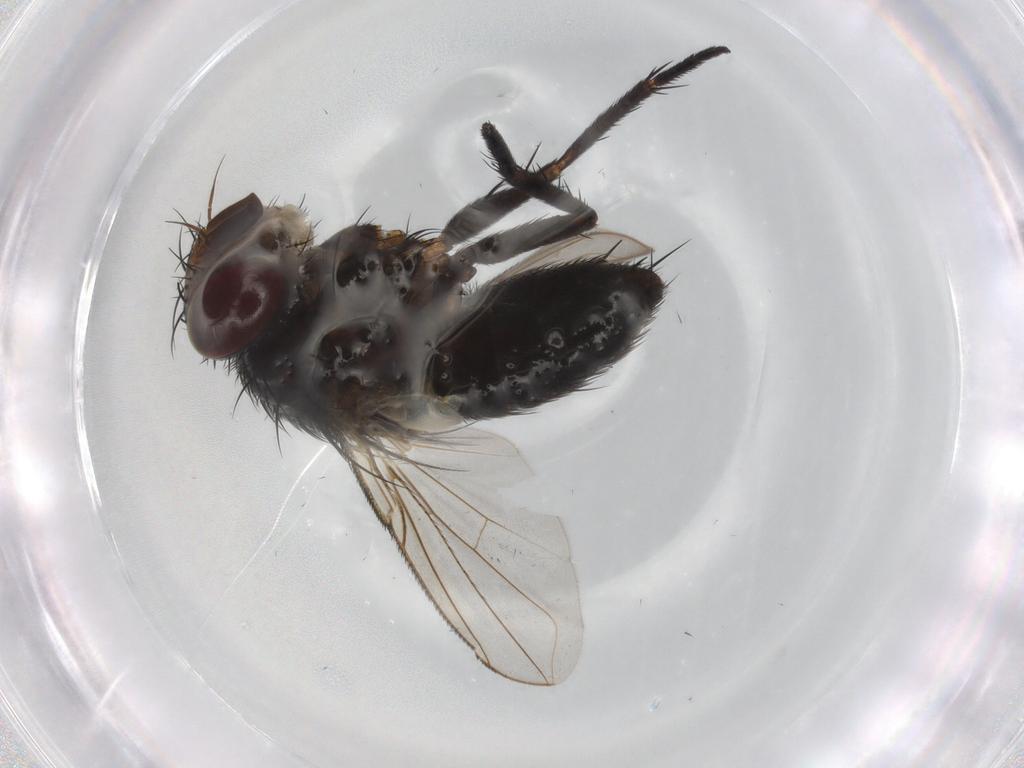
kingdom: Animalia
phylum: Arthropoda
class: Insecta
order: Diptera
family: Tachinidae
